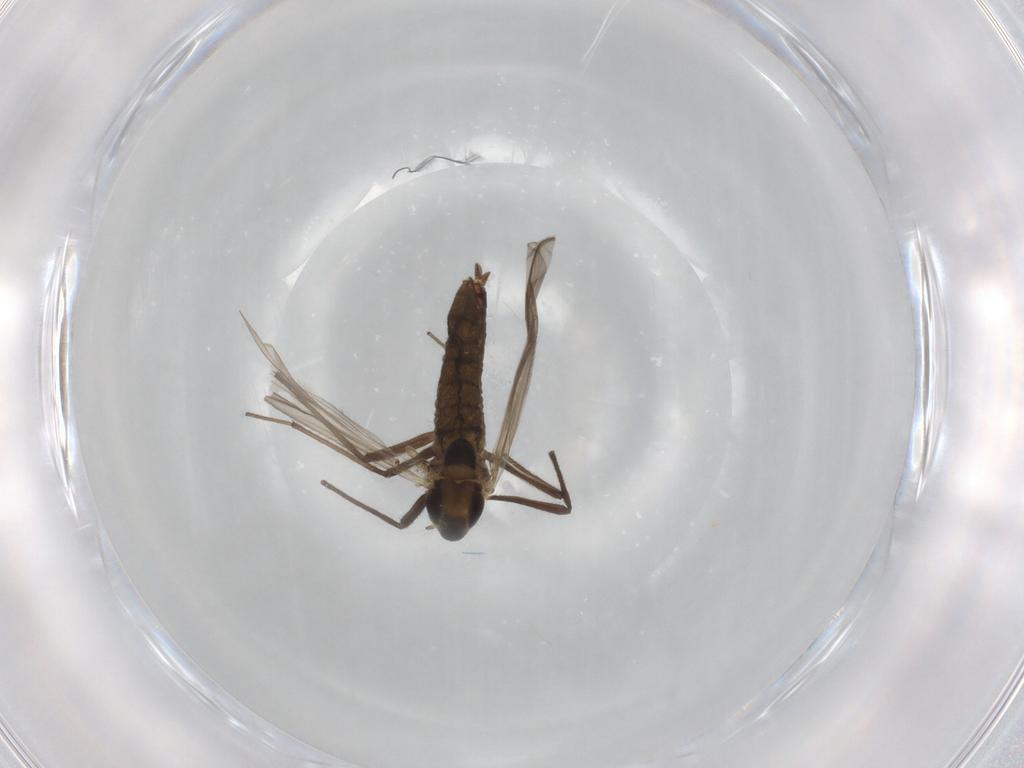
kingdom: Animalia
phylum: Arthropoda
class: Insecta
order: Diptera
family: Chironomidae
